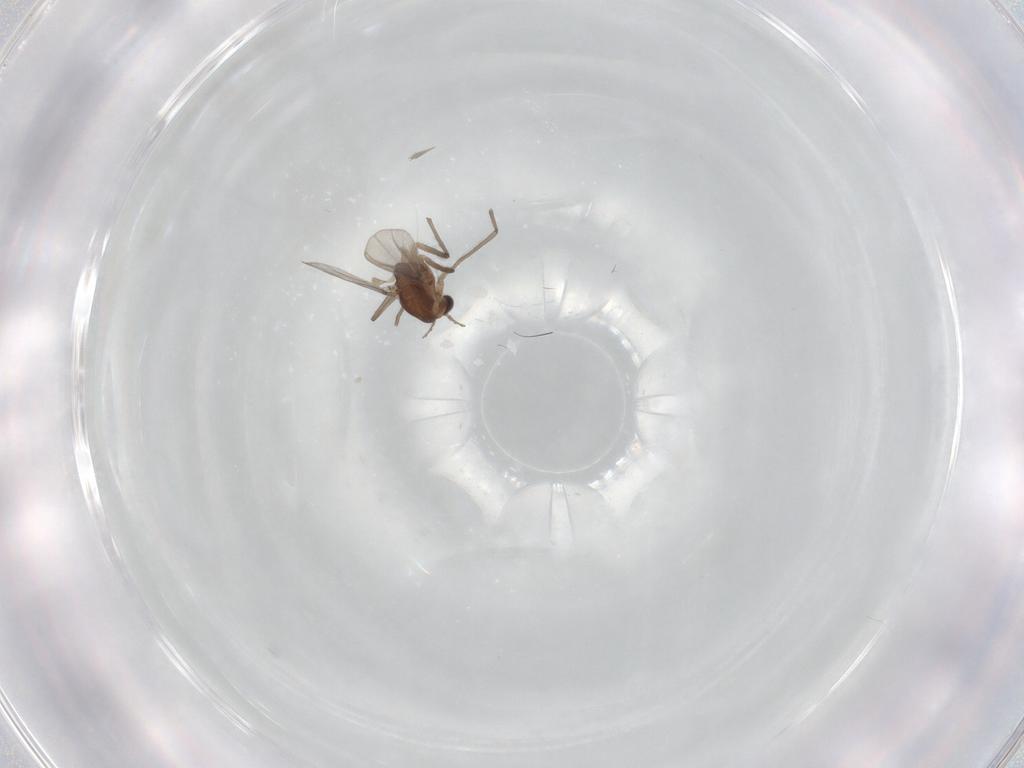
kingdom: Animalia
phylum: Arthropoda
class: Insecta
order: Diptera
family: Chironomidae
